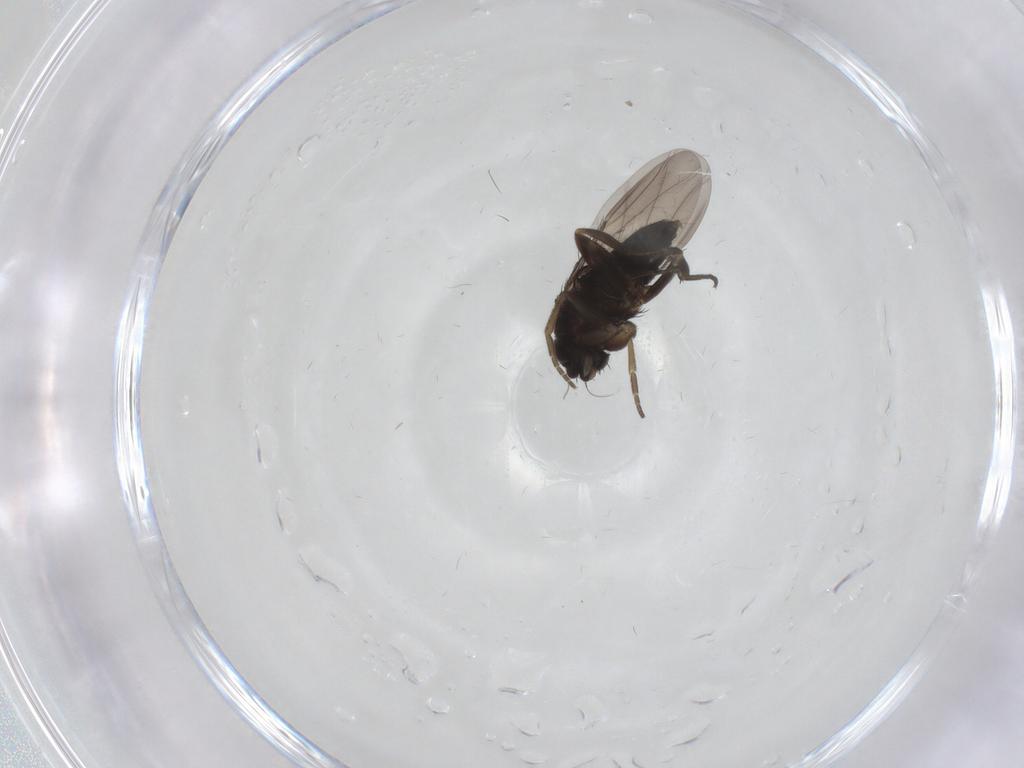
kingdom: Animalia
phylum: Arthropoda
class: Insecta
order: Diptera
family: Phoridae
